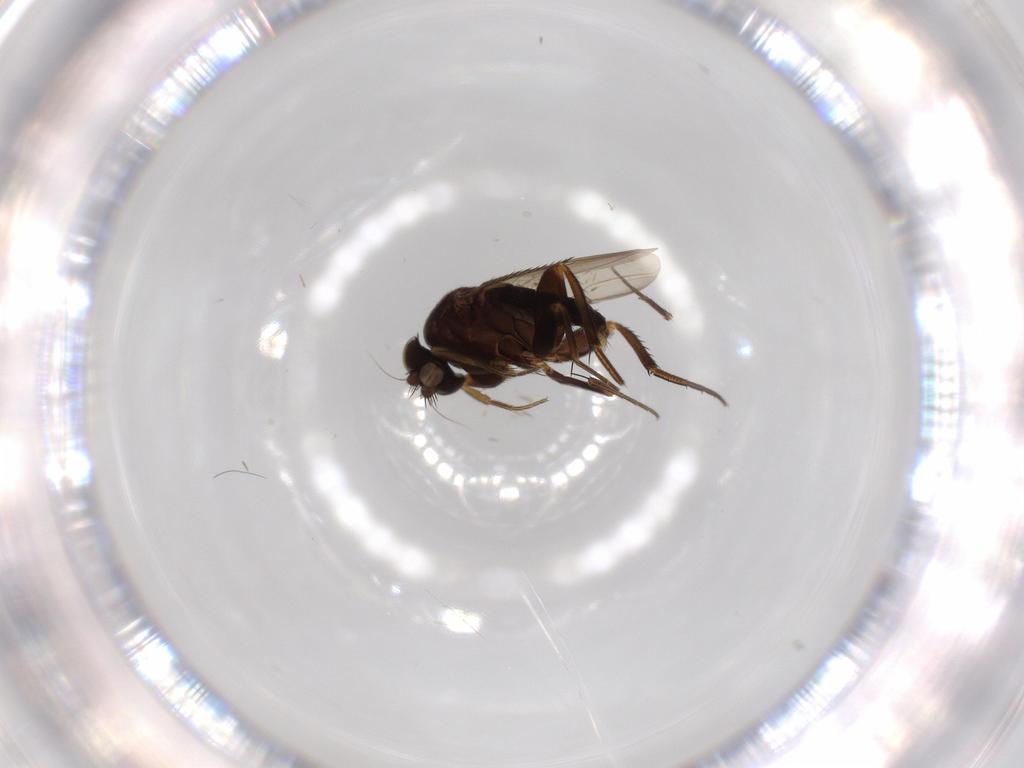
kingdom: Animalia
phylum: Arthropoda
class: Insecta
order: Diptera
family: Phoridae
